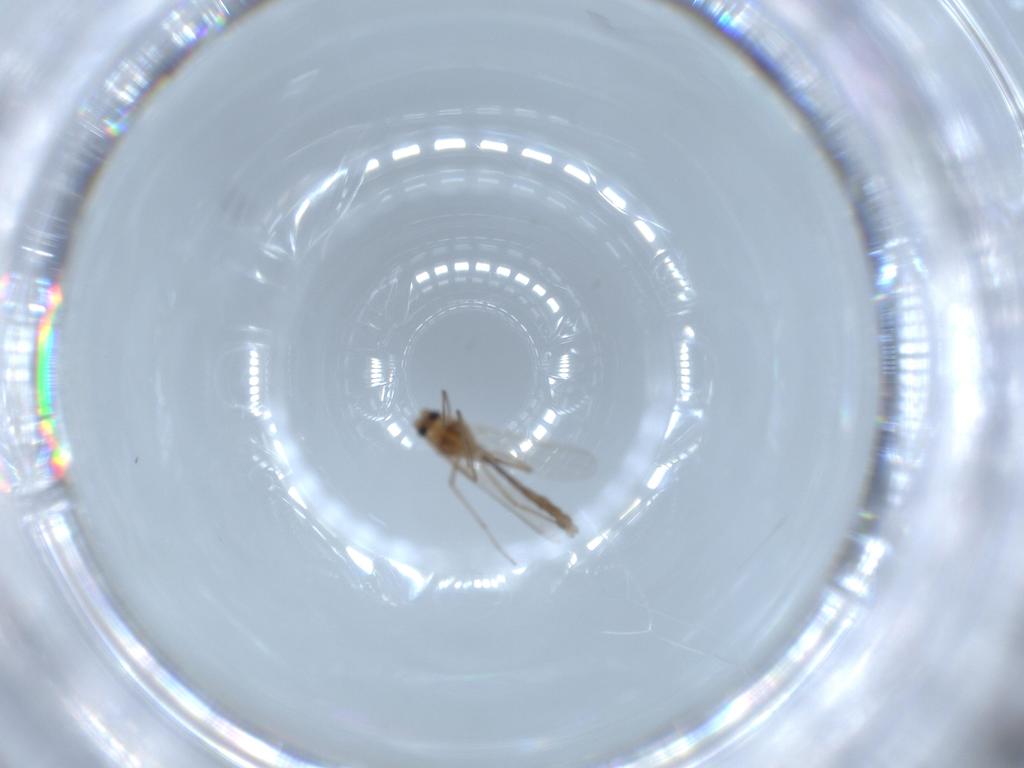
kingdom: Animalia
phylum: Arthropoda
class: Insecta
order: Diptera
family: Chironomidae
